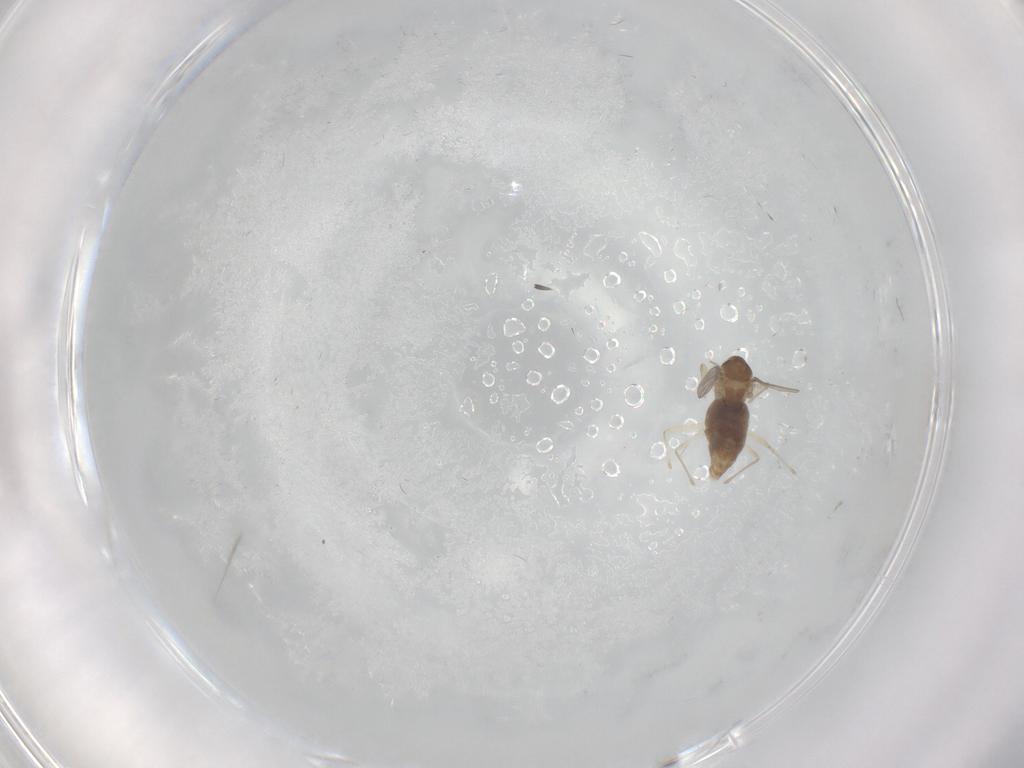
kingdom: Animalia
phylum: Arthropoda
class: Insecta
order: Diptera
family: Chironomidae
